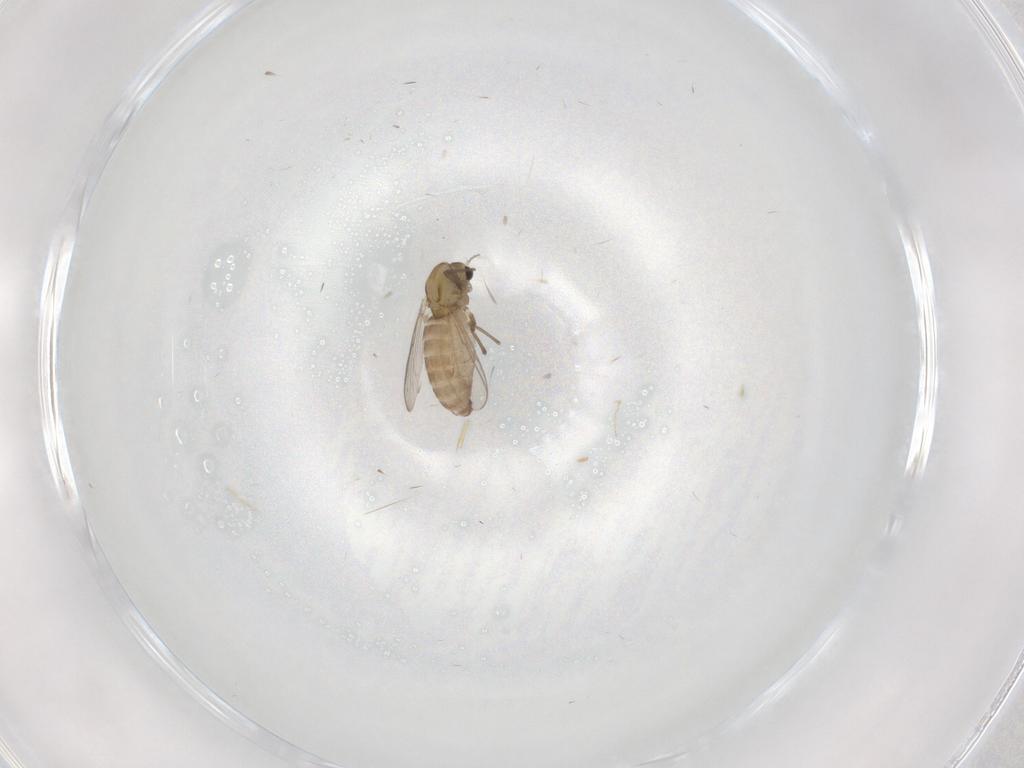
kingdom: Animalia
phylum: Arthropoda
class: Insecta
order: Diptera
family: Chironomidae
